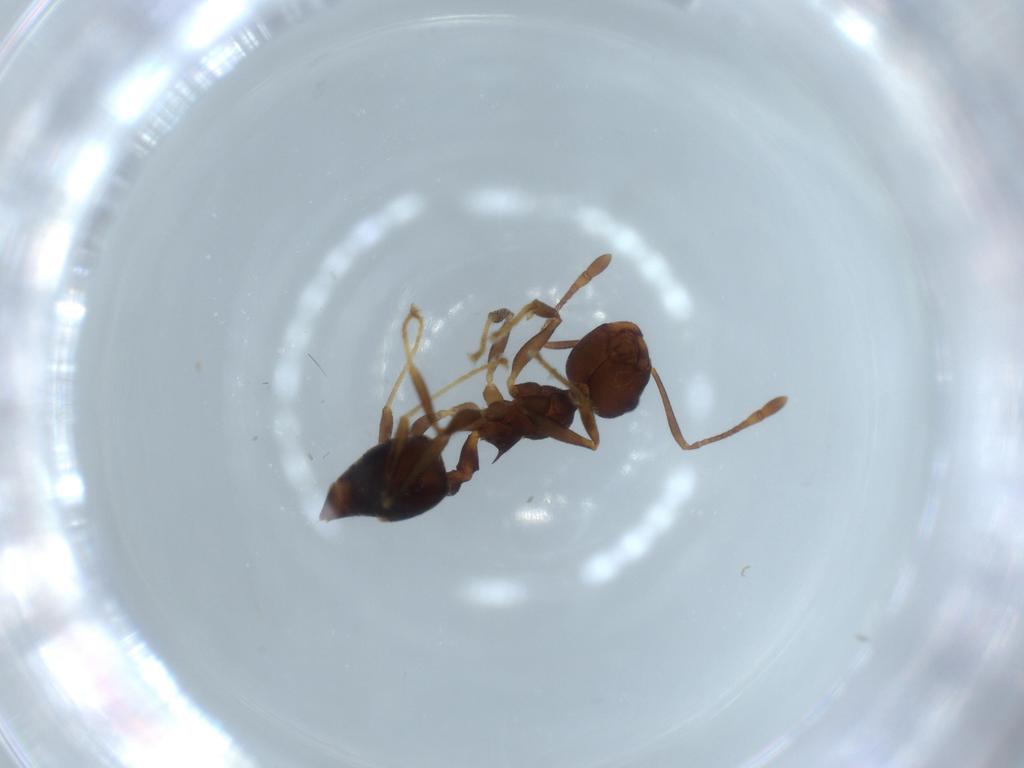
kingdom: Animalia
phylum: Arthropoda
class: Insecta
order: Hymenoptera
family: Formicidae
